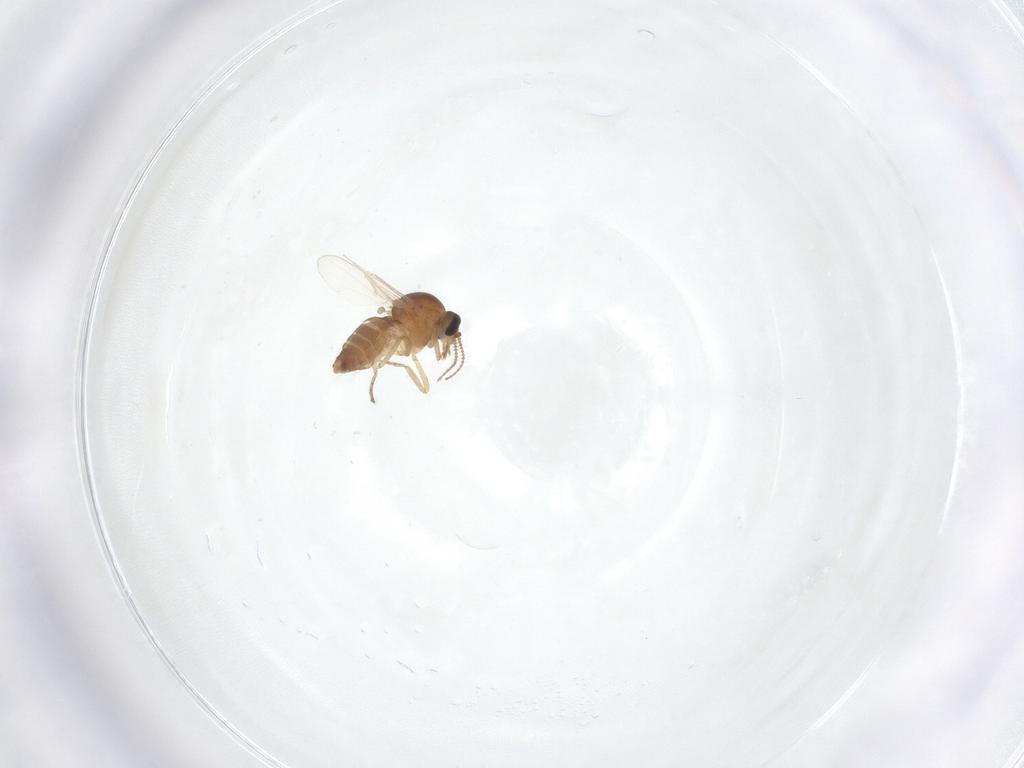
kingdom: Animalia
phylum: Arthropoda
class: Insecta
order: Diptera
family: Ceratopogonidae
